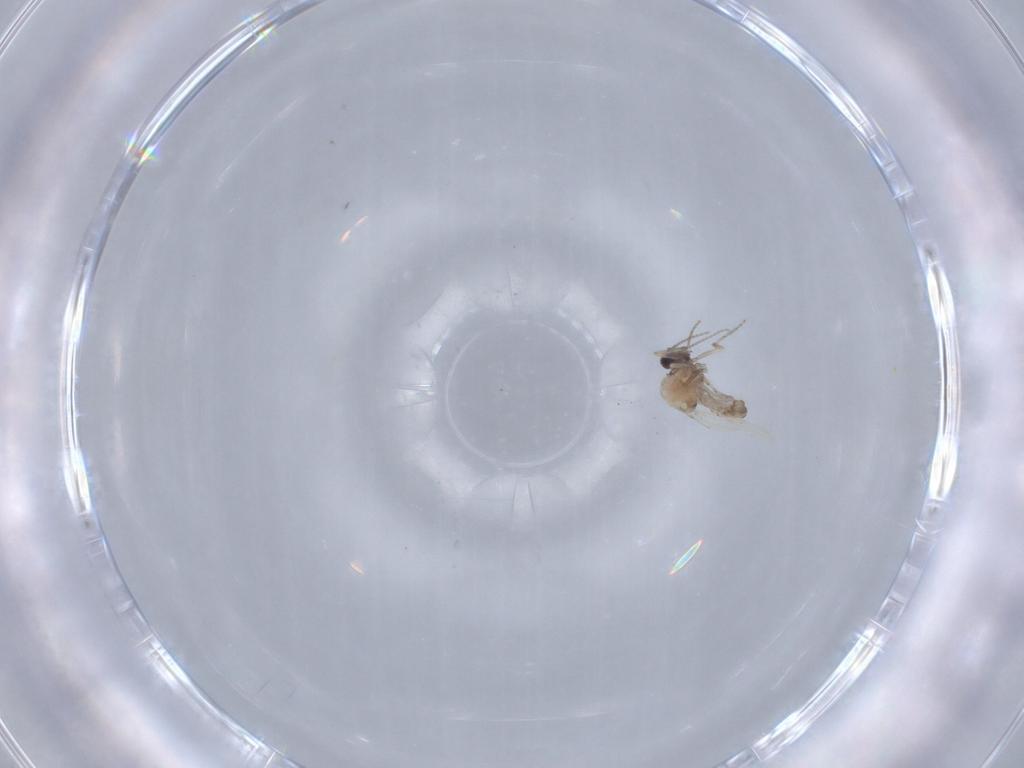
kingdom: Animalia
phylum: Arthropoda
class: Insecta
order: Diptera
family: Ceratopogonidae
